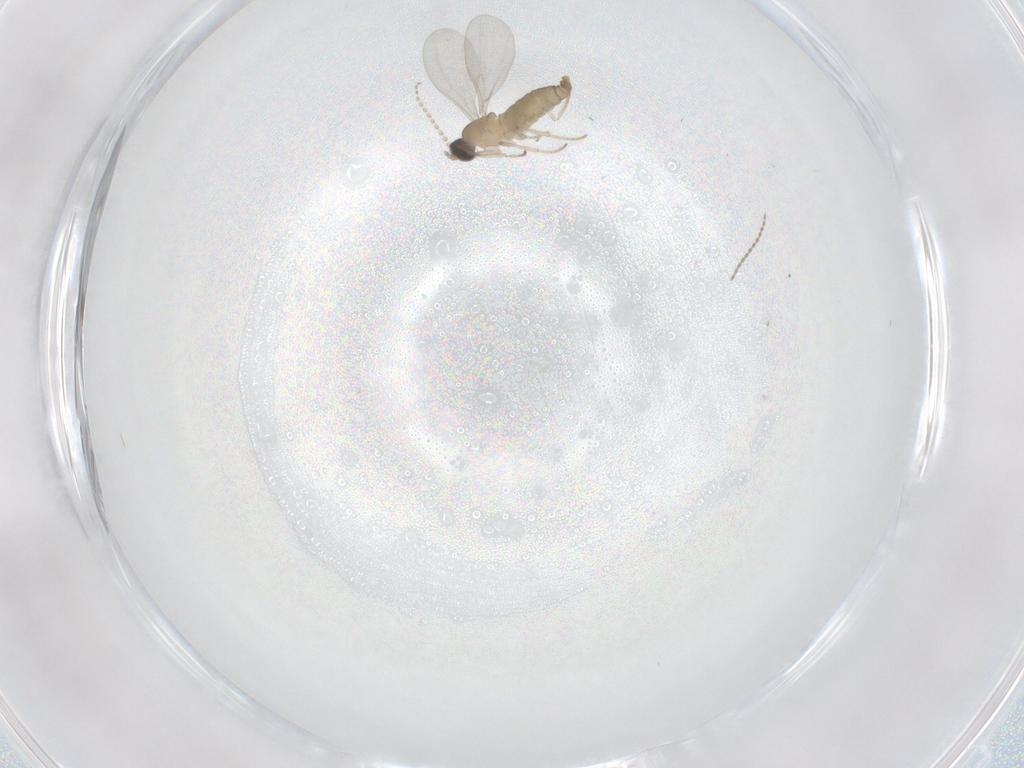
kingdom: Animalia
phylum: Arthropoda
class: Insecta
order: Diptera
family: Cecidomyiidae
